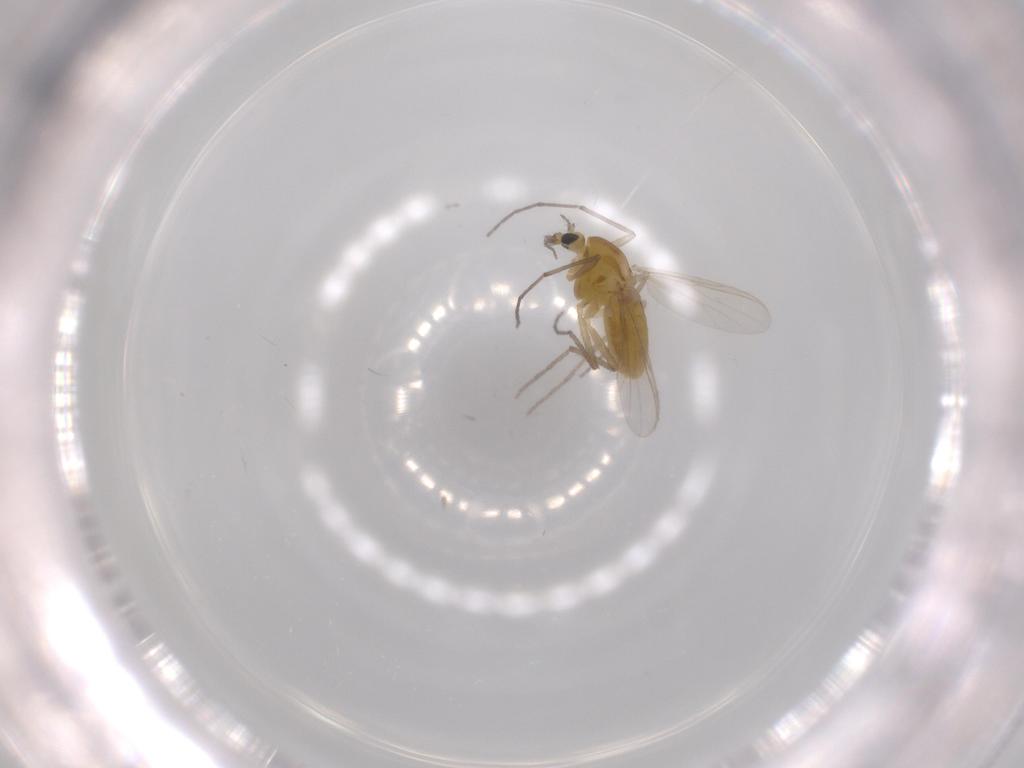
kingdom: Animalia
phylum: Arthropoda
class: Insecta
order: Diptera
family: Chironomidae
